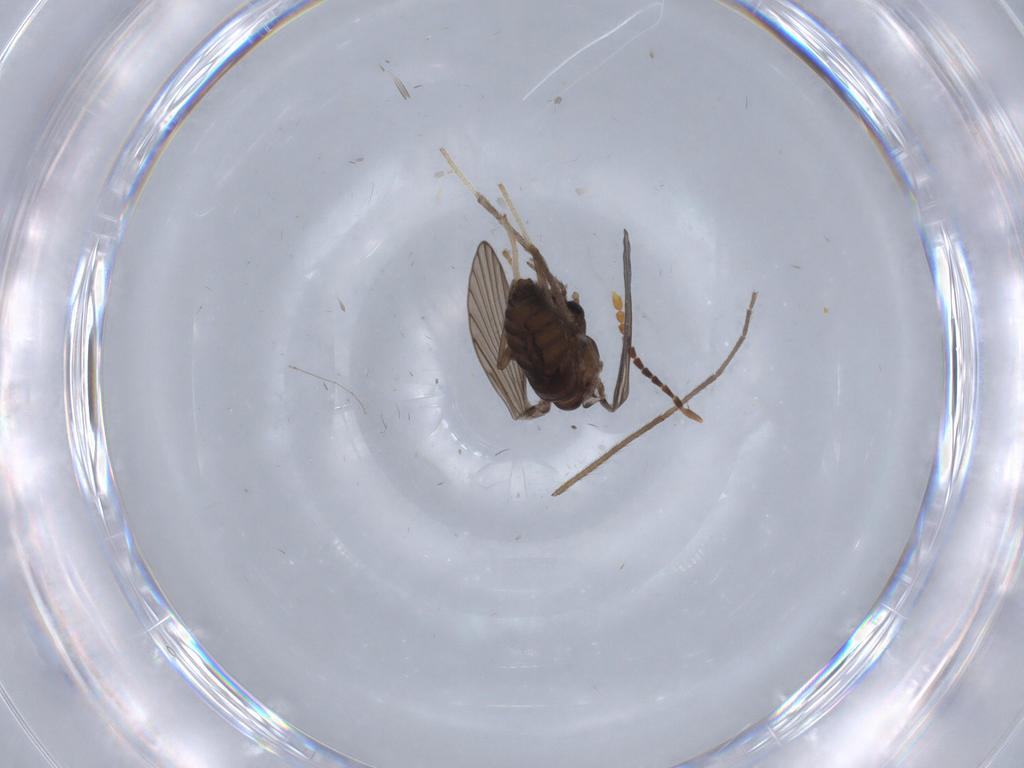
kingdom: Animalia
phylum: Arthropoda
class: Insecta
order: Diptera
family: Psychodidae
